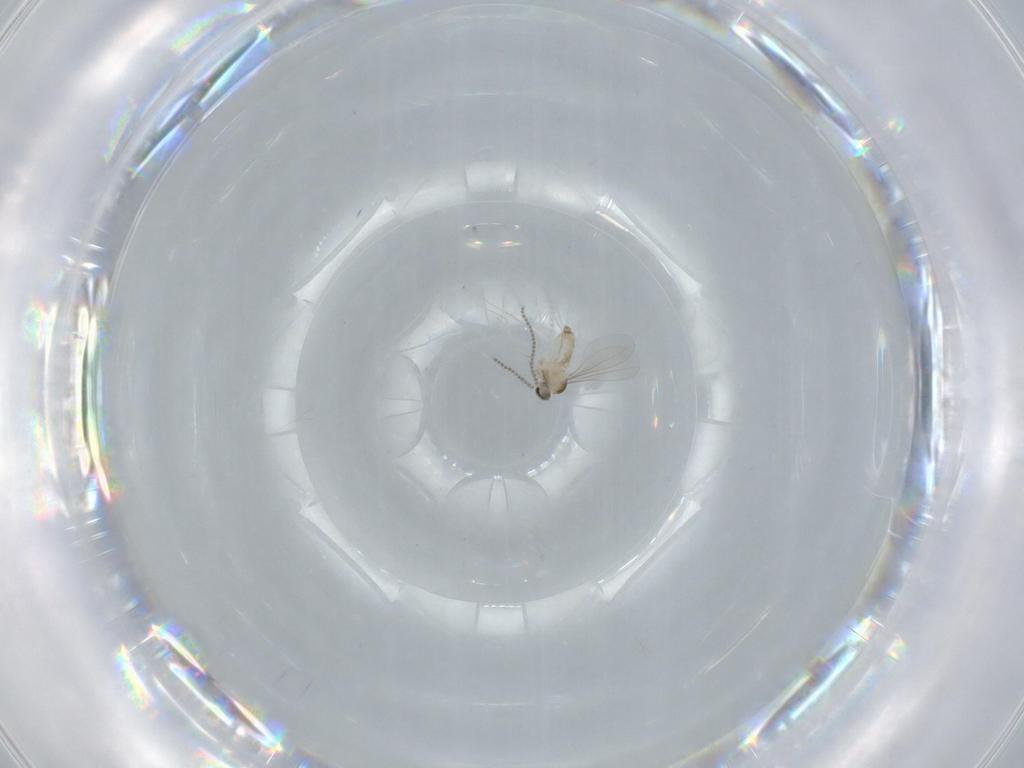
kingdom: Animalia
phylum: Arthropoda
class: Insecta
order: Diptera
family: Cecidomyiidae
